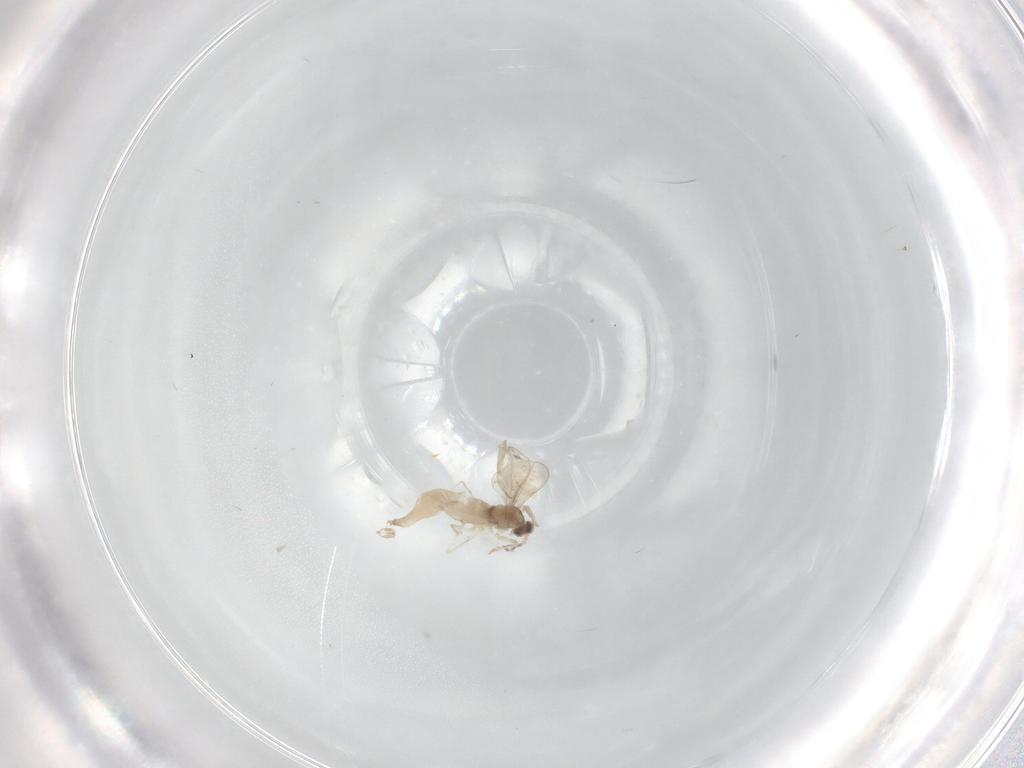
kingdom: Animalia
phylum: Arthropoda
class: Insecta
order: Diptera
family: Cecidomyiidae
